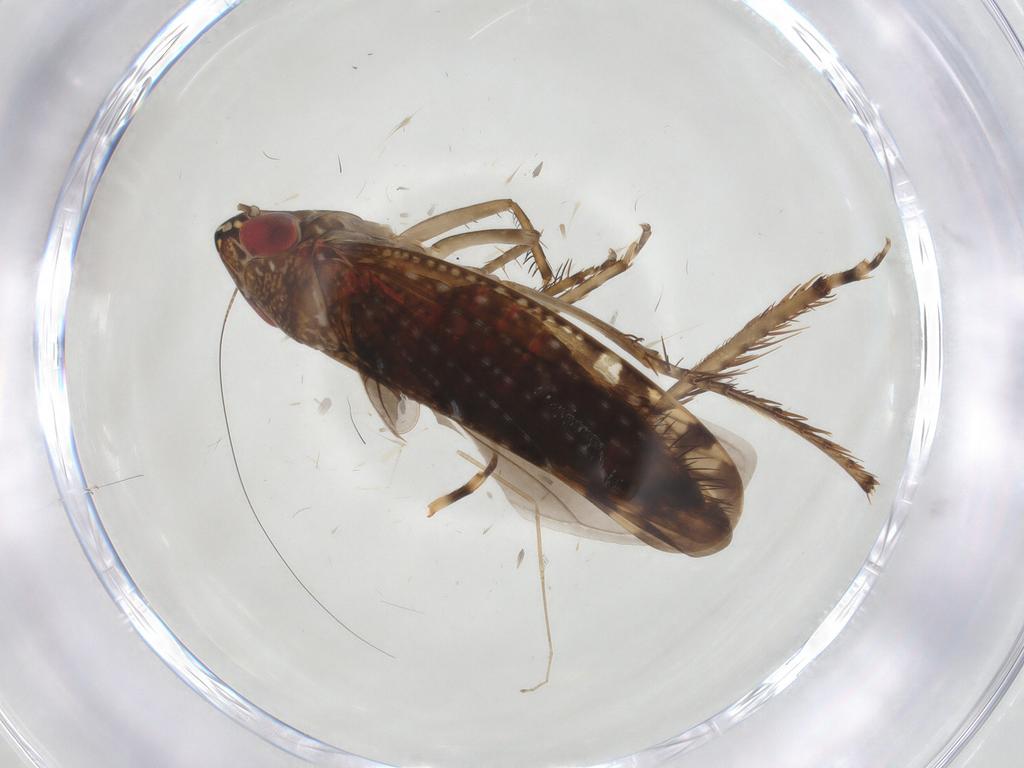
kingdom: Animalia
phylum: Arthropoda
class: Insecta
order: Hemiptera
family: Cicadellidae
